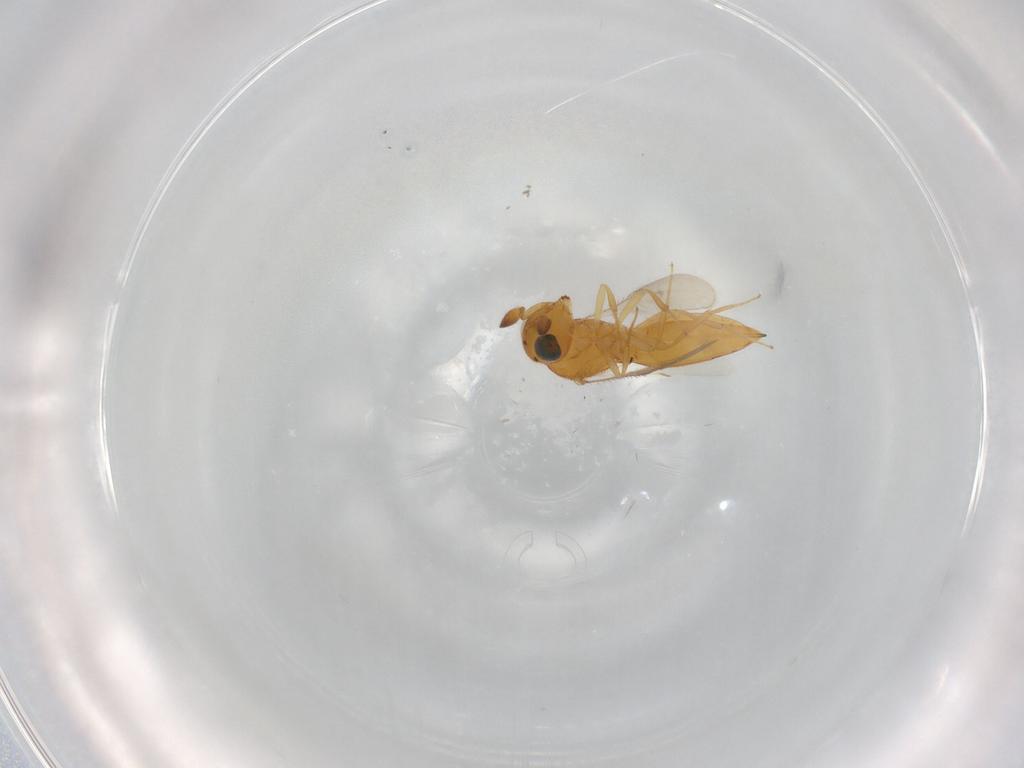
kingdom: Animalia
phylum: Arthropoda
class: Insecta
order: Hymenoptera
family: Scelionidae
